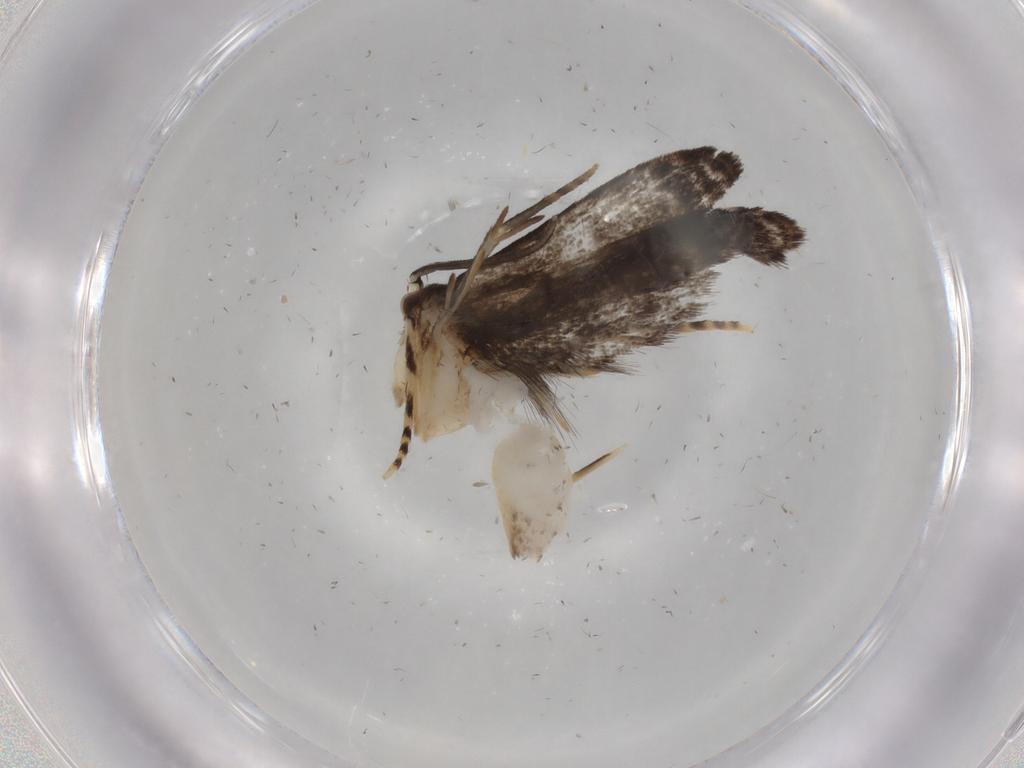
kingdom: Animalia
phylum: Arthropoda
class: Insecta
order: Lepidoptera
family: Dryadaulidae
